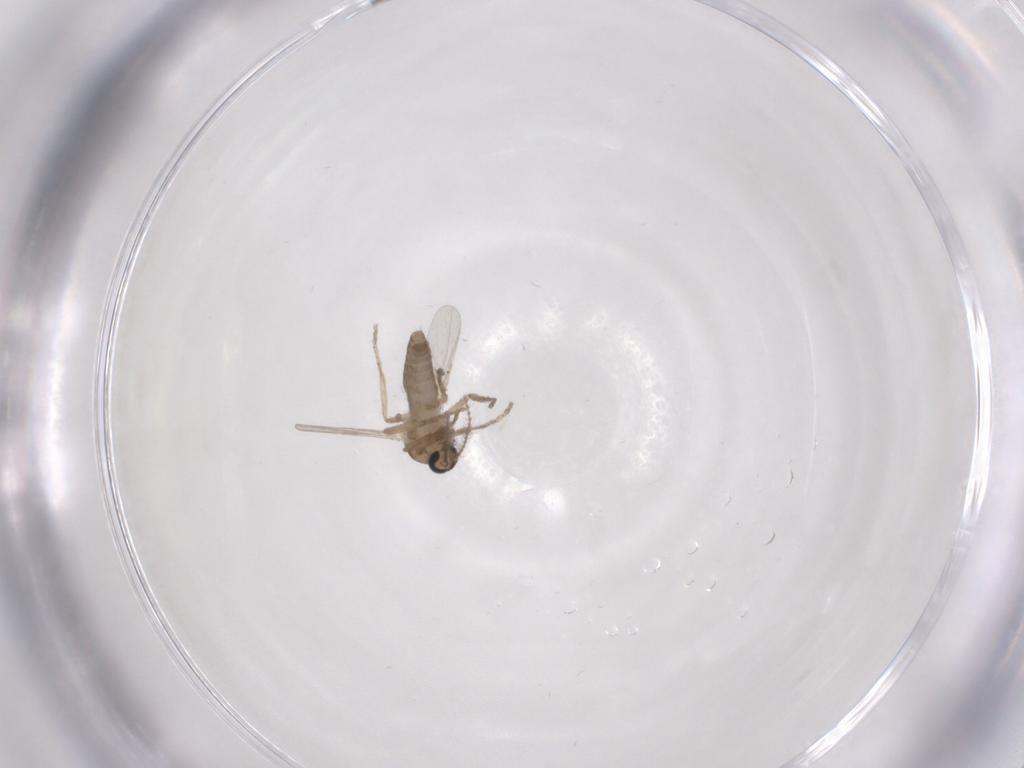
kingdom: Animalia
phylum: Arthropoda
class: Insecta
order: Diptera
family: Ceratopogonidae
